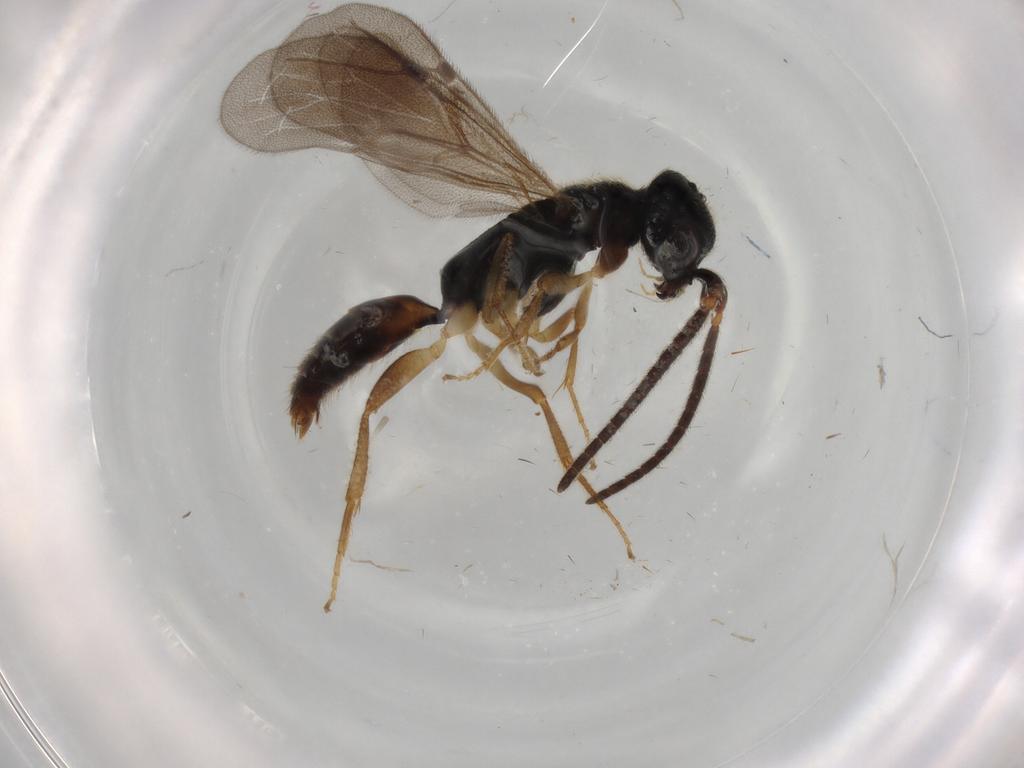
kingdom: Animalia
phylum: Arthropoda
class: Insecta
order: Hymenoptera
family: Bethylidae
